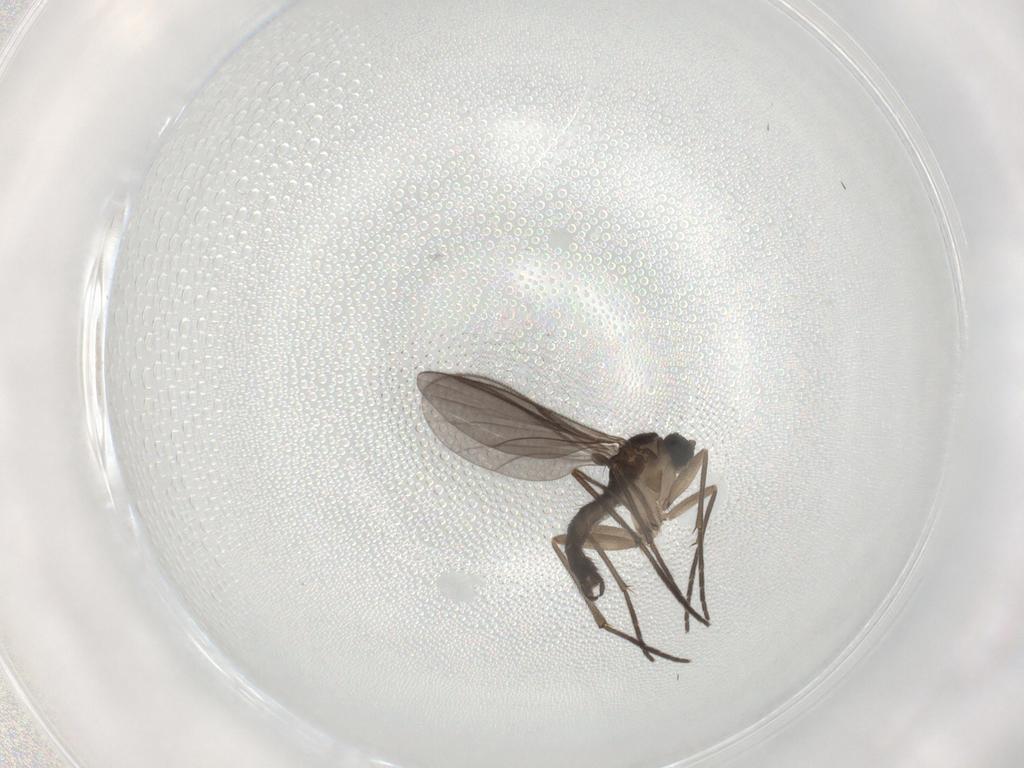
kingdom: Animalia
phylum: Arthropoda
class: Insecta
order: Diptera
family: Sciaridae
